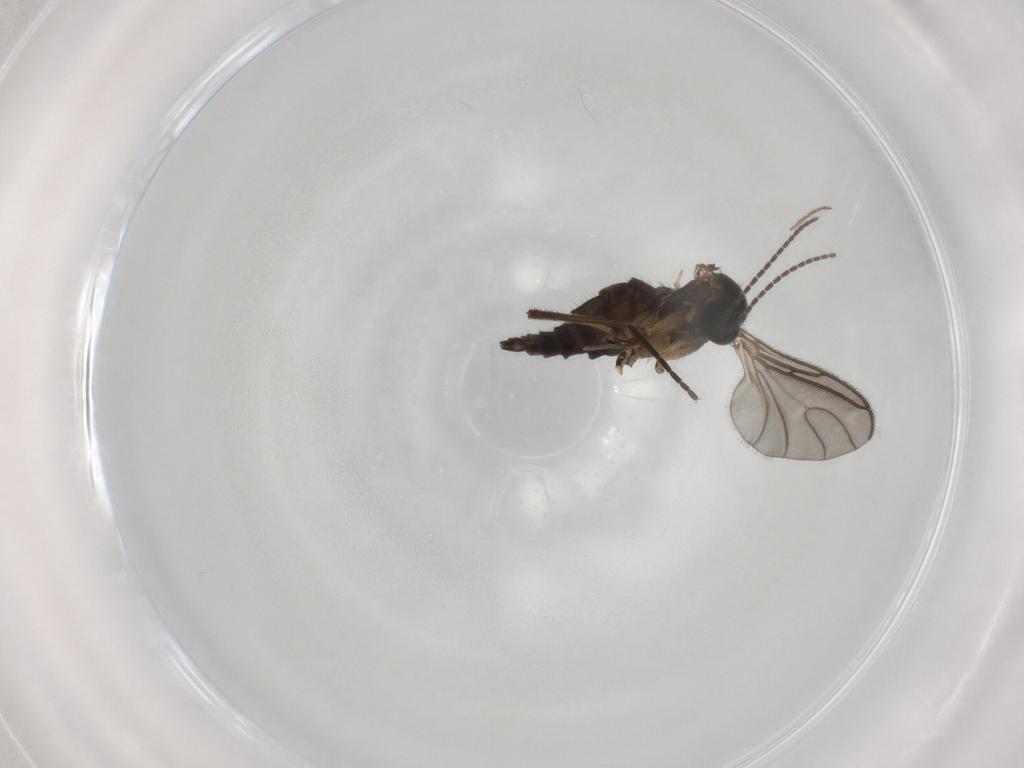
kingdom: Animalia
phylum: Arthropoda
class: Insecta
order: Diptera
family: Sciaridae
